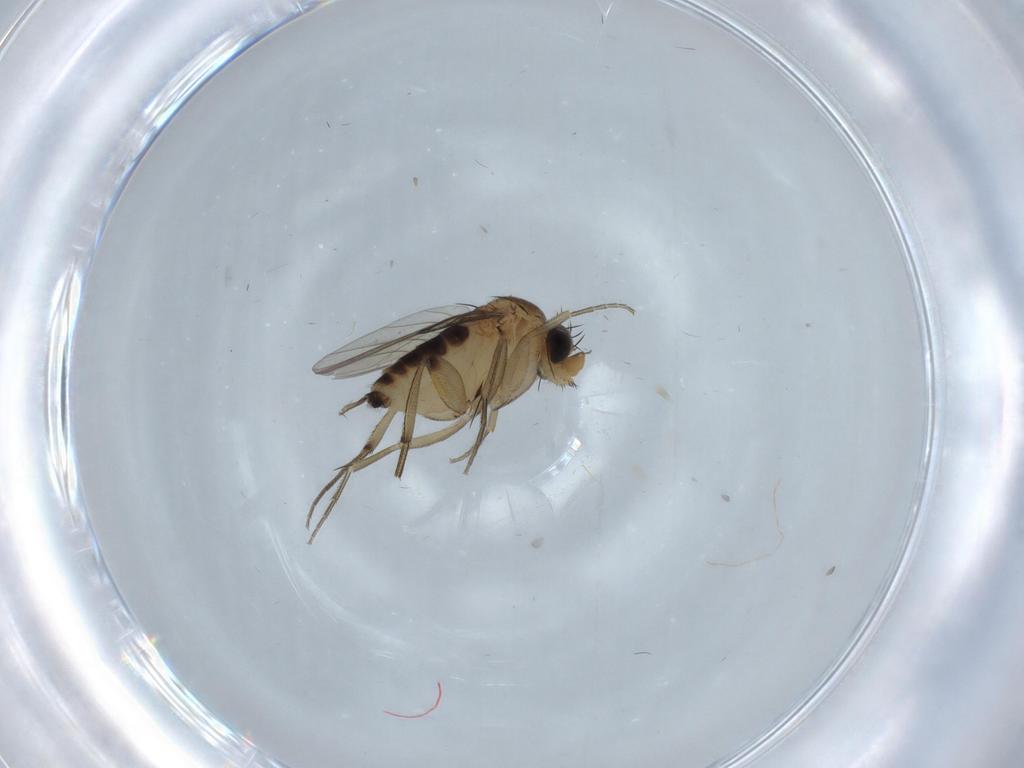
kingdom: Animalia
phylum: Arthropoda
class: Insecta
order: Diptera
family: Phoridae
